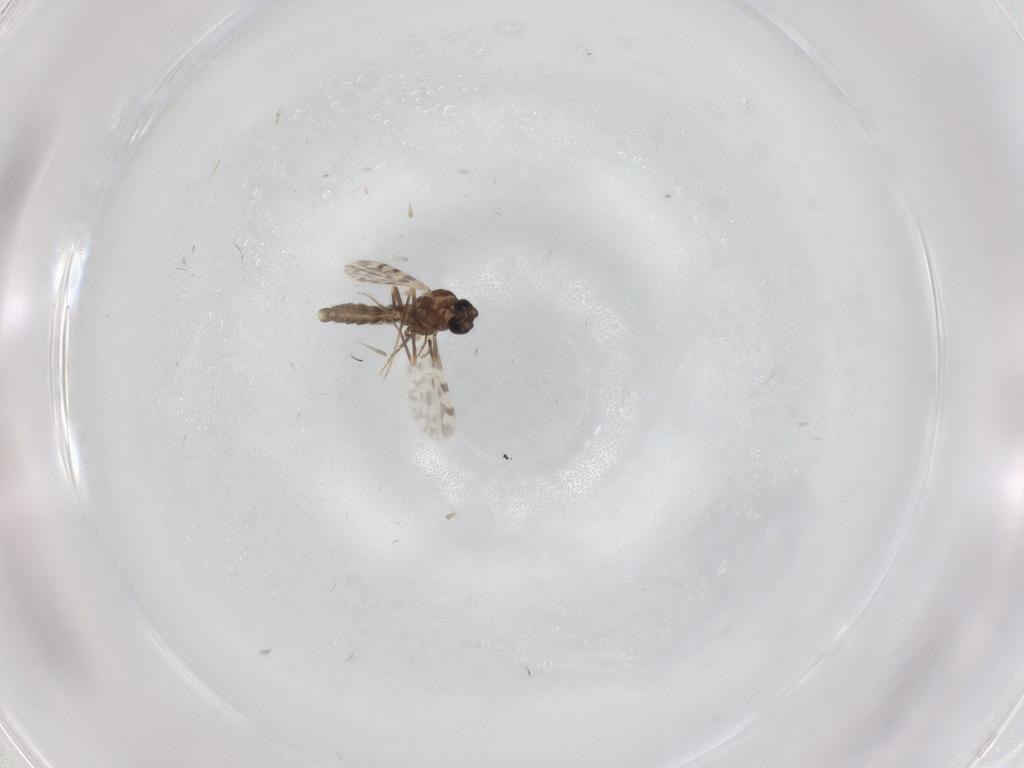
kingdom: Animalia
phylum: Arthropoda
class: Insecta
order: Diptera
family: Ceratopogonidae
